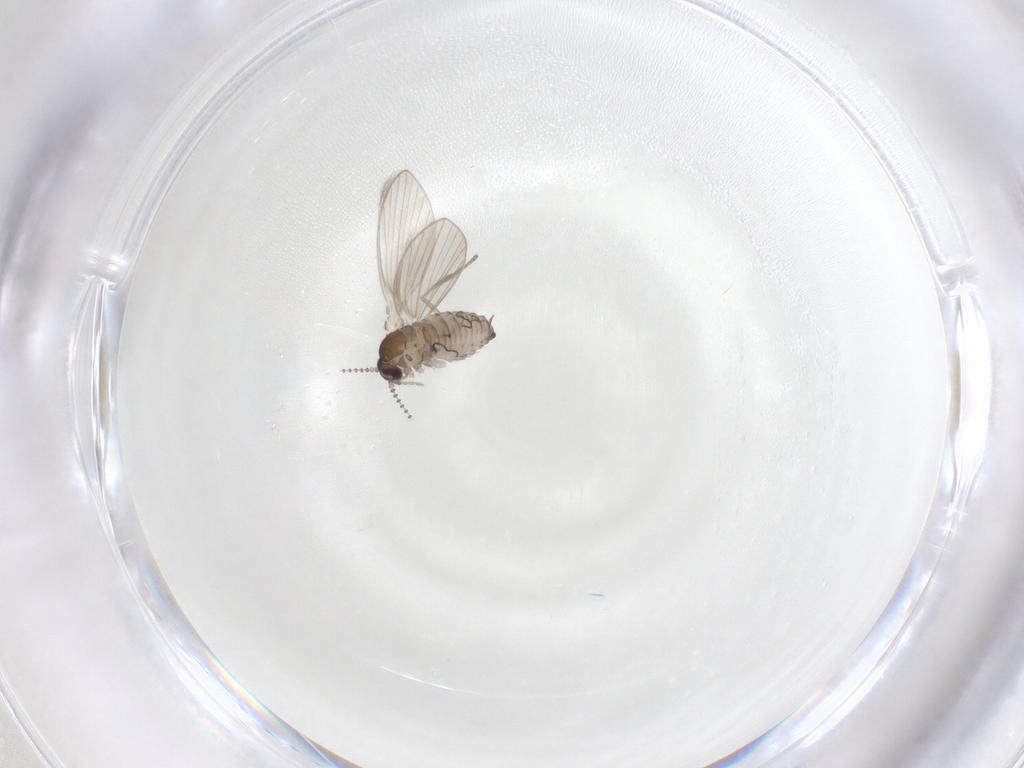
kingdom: Animalia
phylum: Arthropoda
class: Insecta
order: Diptera
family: Psychodidae
